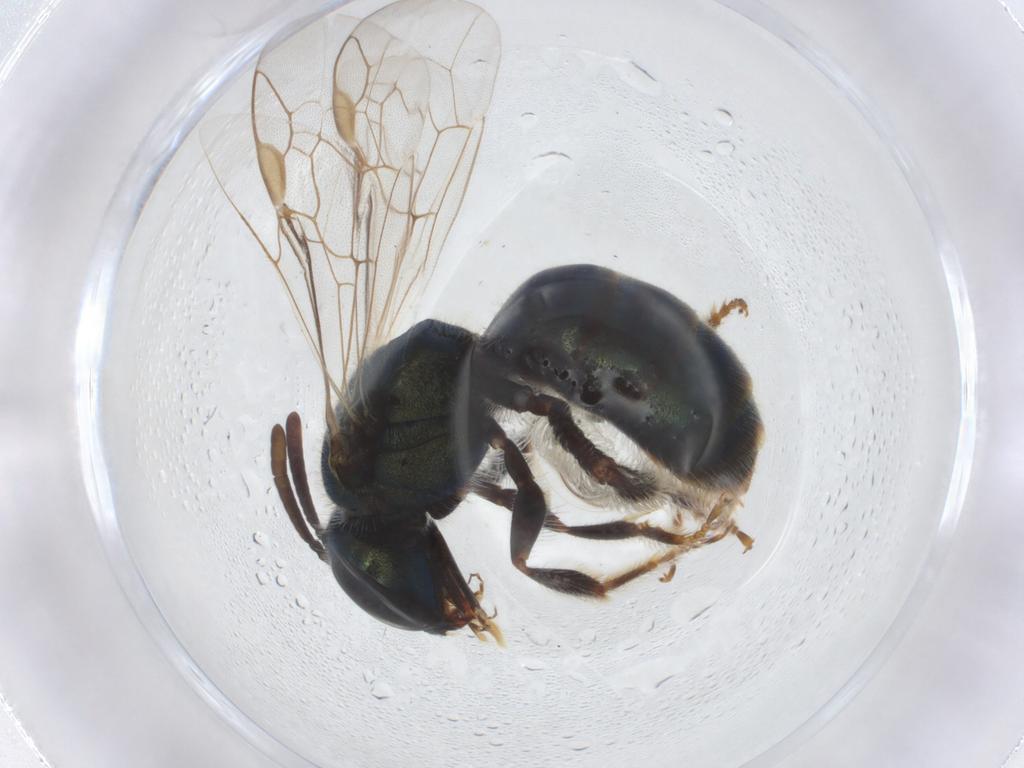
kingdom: Animalia
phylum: Arthropoda
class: Insecta
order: Hymenoptera
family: Halictidae
